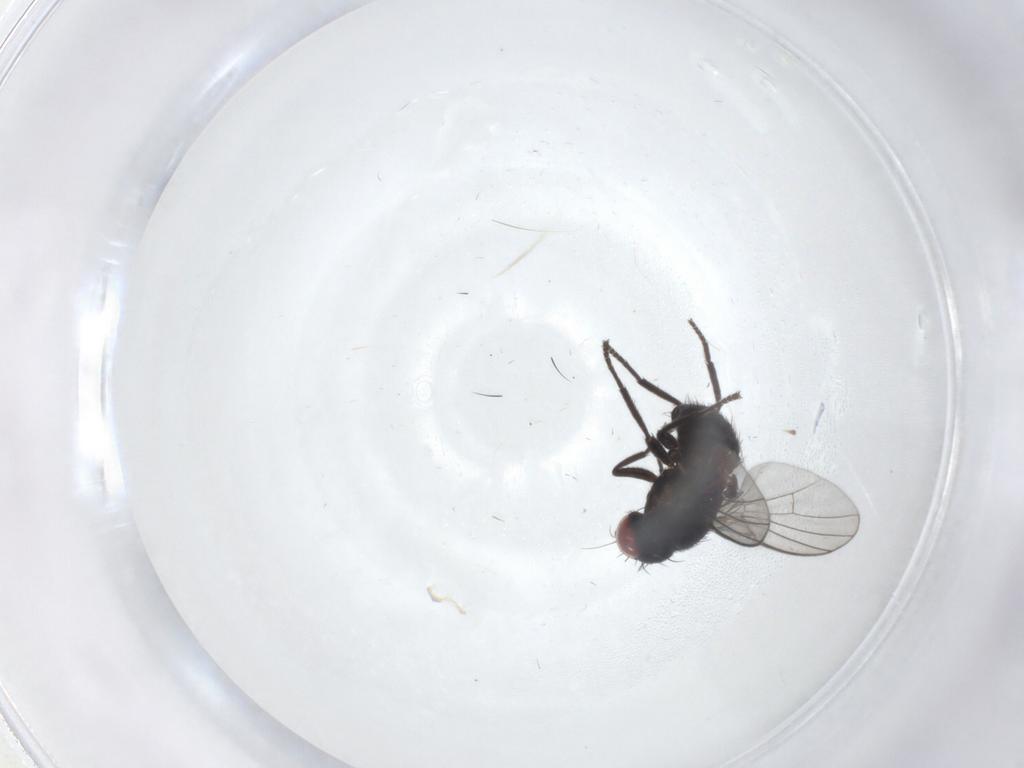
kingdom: Animalia
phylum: Arthropoda
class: Insecta
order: Diptera
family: Agromyzidae
